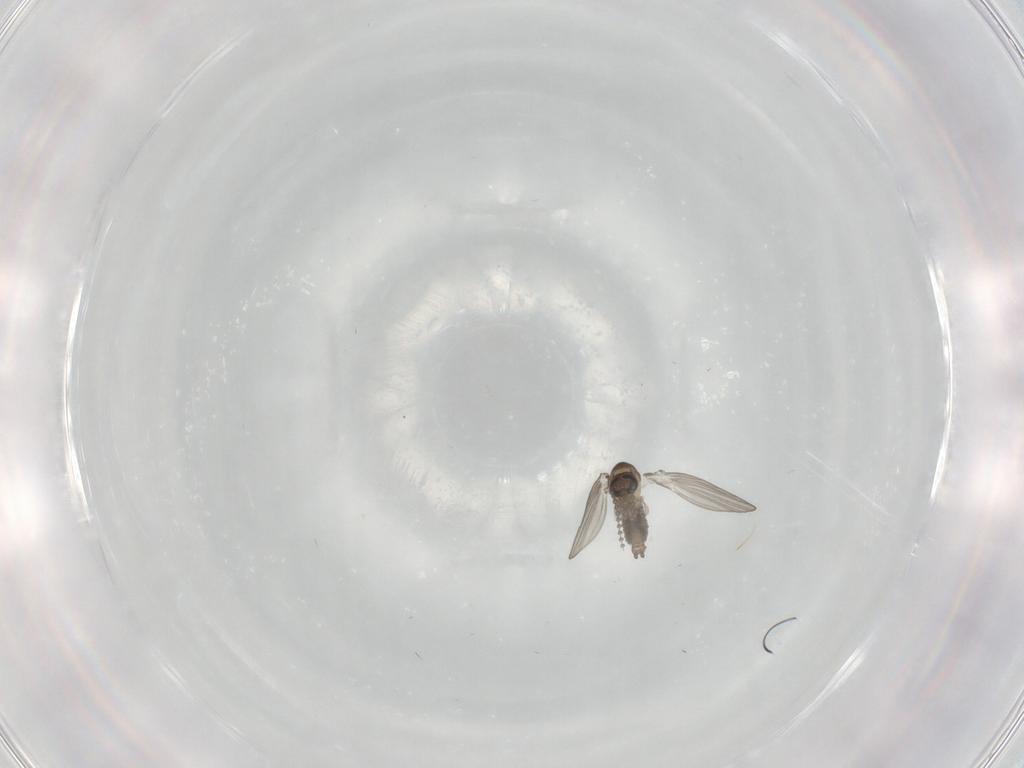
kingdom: Animalia
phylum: Arthropoda
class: Insecta
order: Diptera
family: Psychodidae
